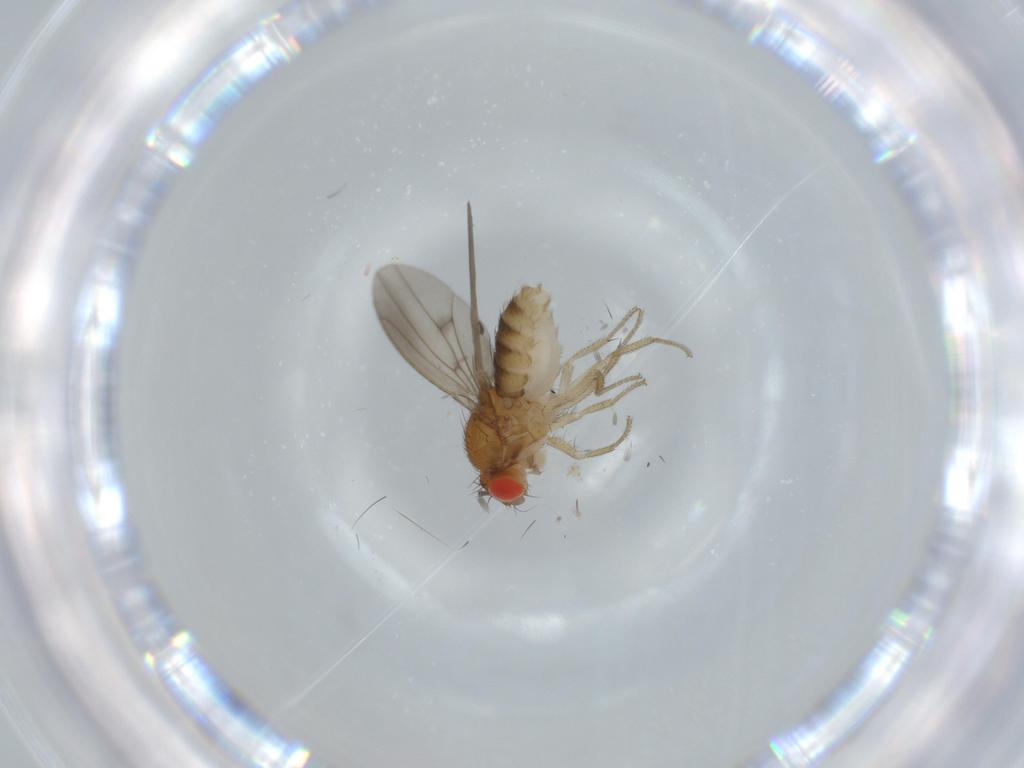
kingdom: Animalia
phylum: Arthropoda
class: Insecta
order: Diptera
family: Drosophilidae
